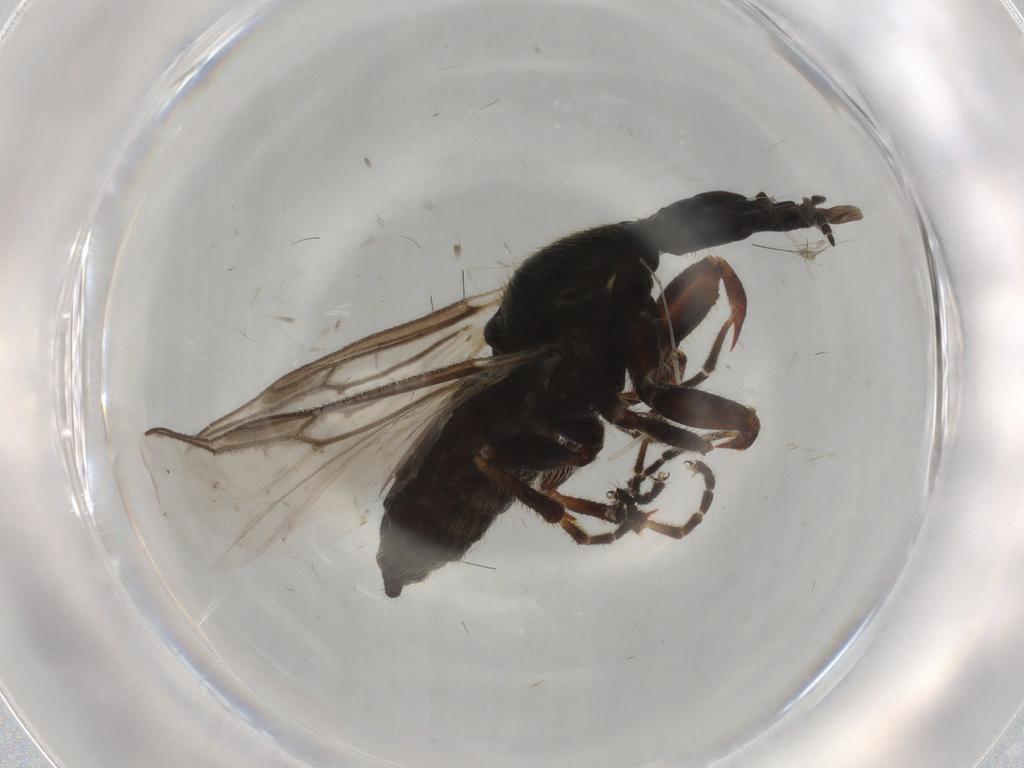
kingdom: Animalia
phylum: Arthropoda
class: Insecta
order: Diptera
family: Bibionidae
